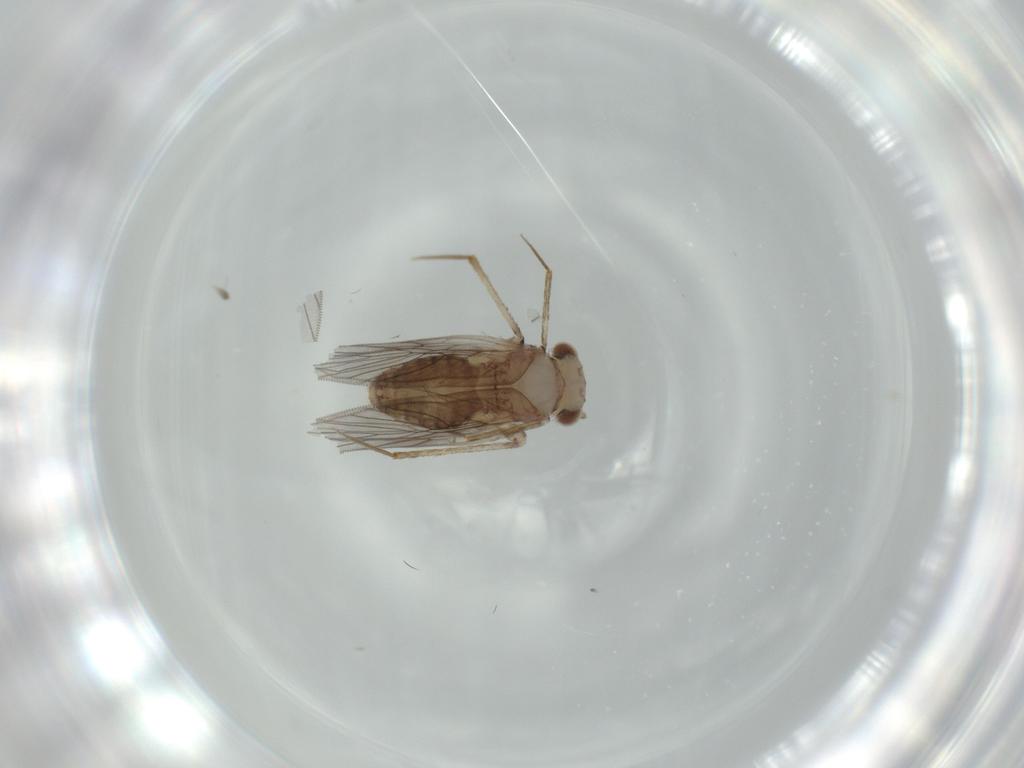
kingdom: Animalia
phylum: Arthropoda
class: Insecta
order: Psocodea
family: Lepidopsocidae
